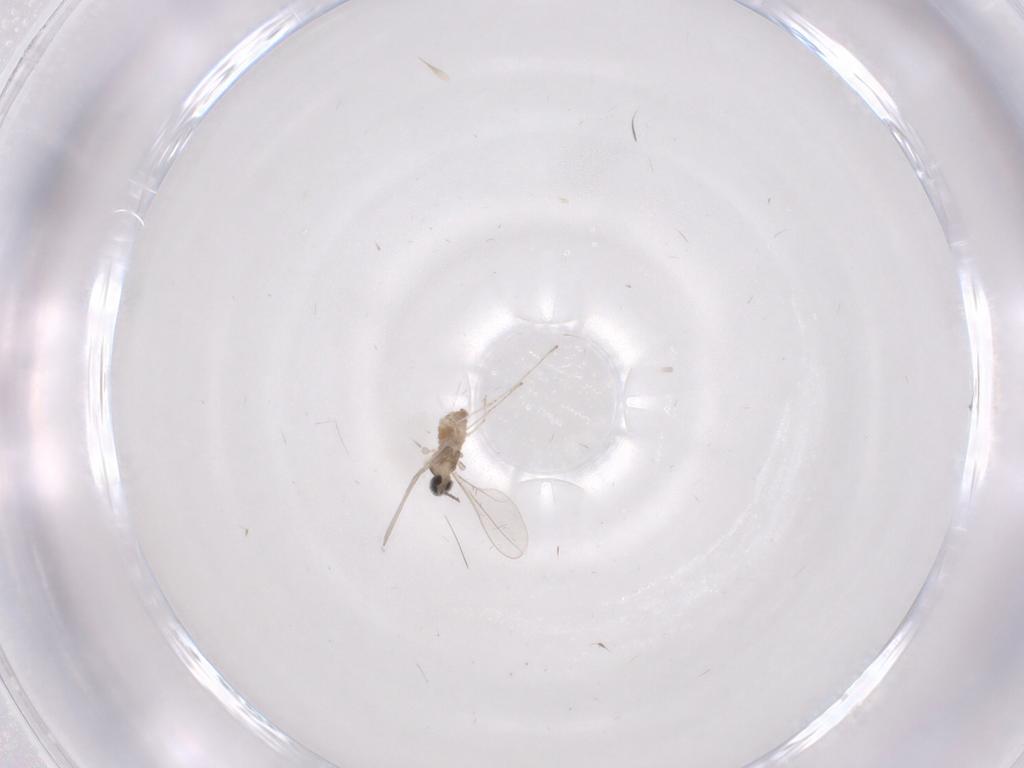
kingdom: Animalia
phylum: Arthropoda
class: Insecta
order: Diptera
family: Cecidomyiidae
